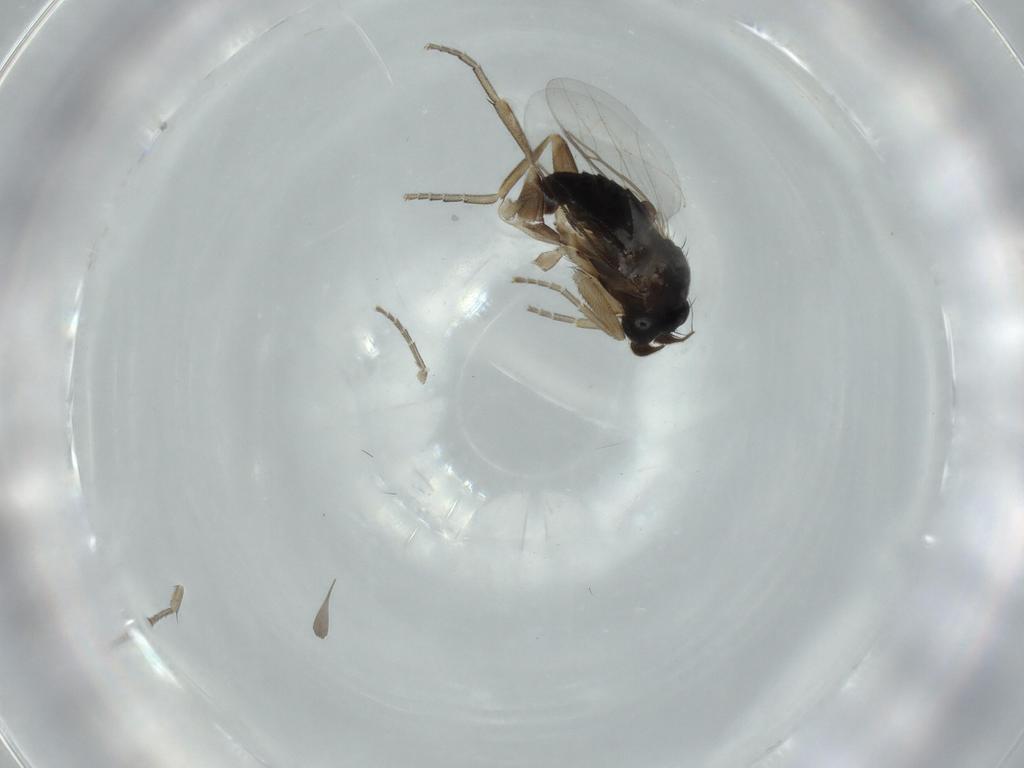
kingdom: Animalia
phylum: Arthropoda
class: Insecta
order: Diptera
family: Phoridae
